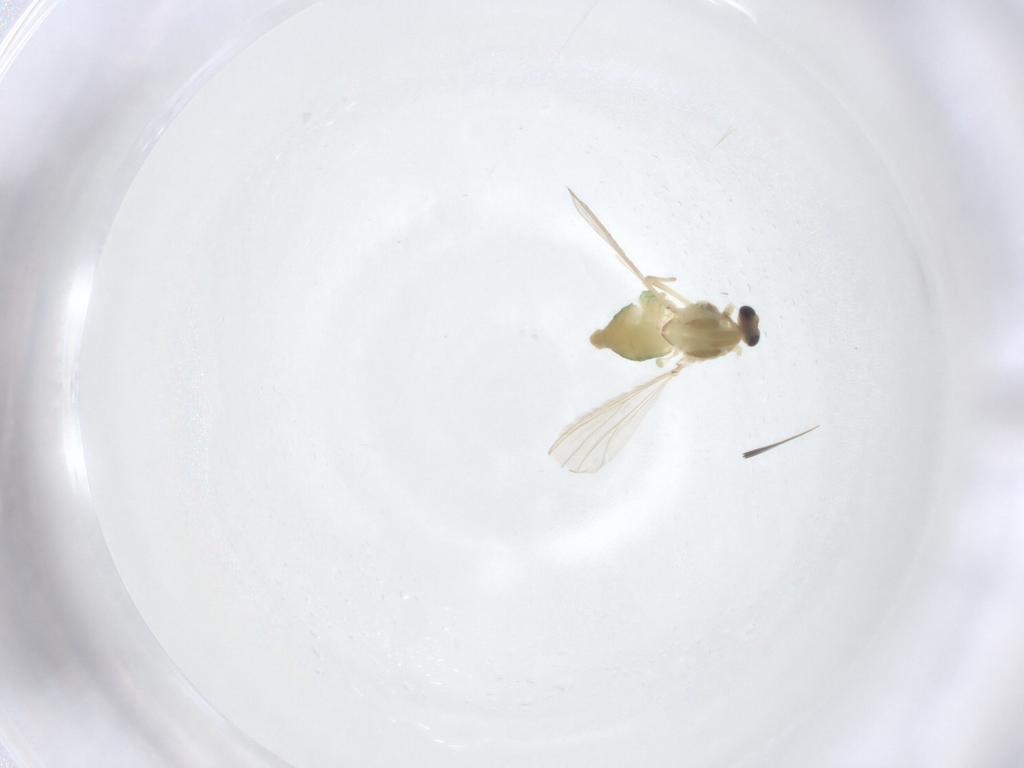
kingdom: Animalia
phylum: Arthropoda
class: Insecta
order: Diptera
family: Chironomidae
